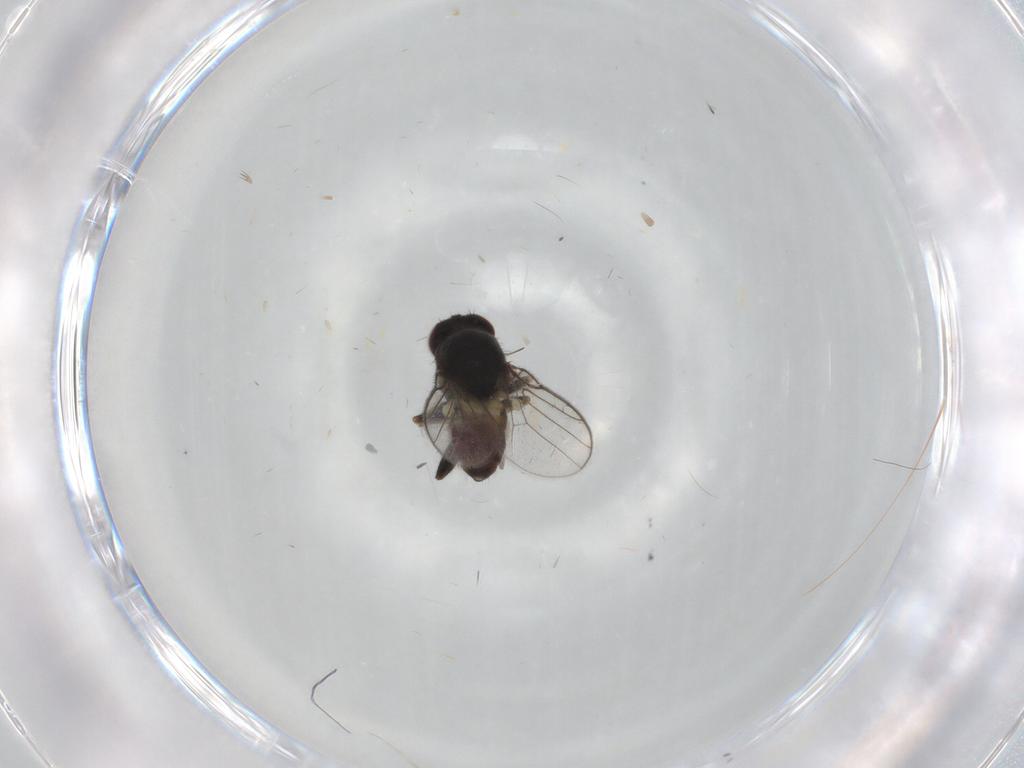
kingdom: Animalia
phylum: Arthropoda
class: Insecta
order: Diptera
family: Chloropidae
